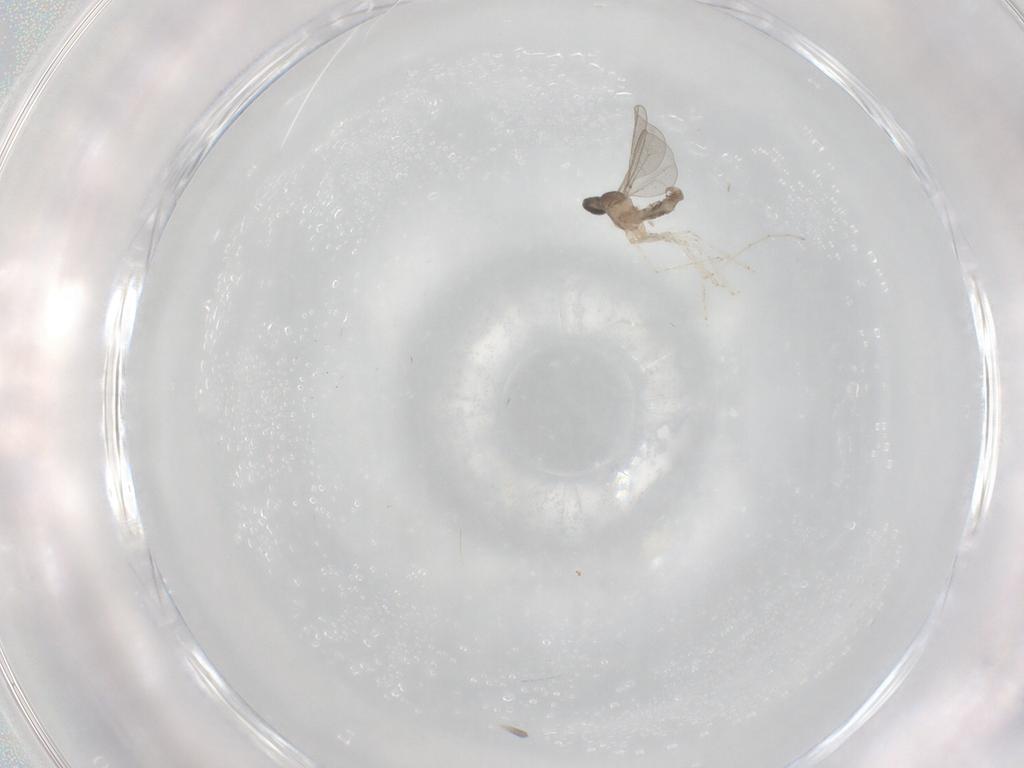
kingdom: Animalia
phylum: Arthropoda
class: Insecta
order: Diptera
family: Cecidomyiidae
